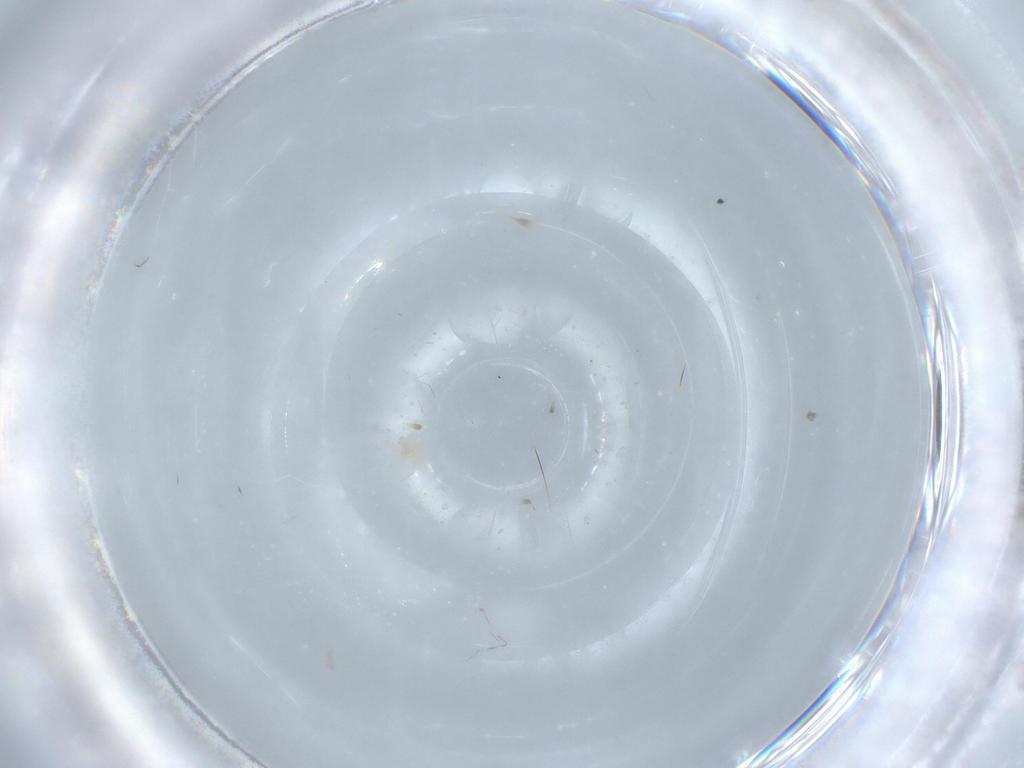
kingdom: Animalia
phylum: Arthropoda
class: Arachnida
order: Trombidiformes
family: Anystidae
